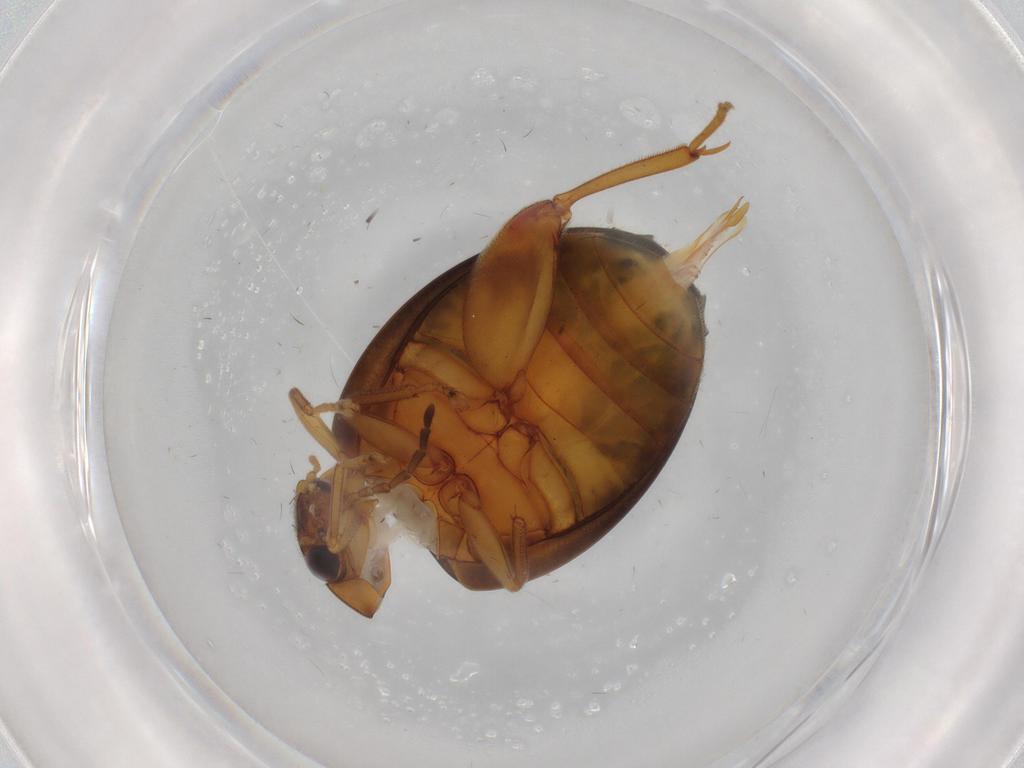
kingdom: Animalia
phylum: Arthropoda
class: Insecta
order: Coleoptera
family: Scirtidae
